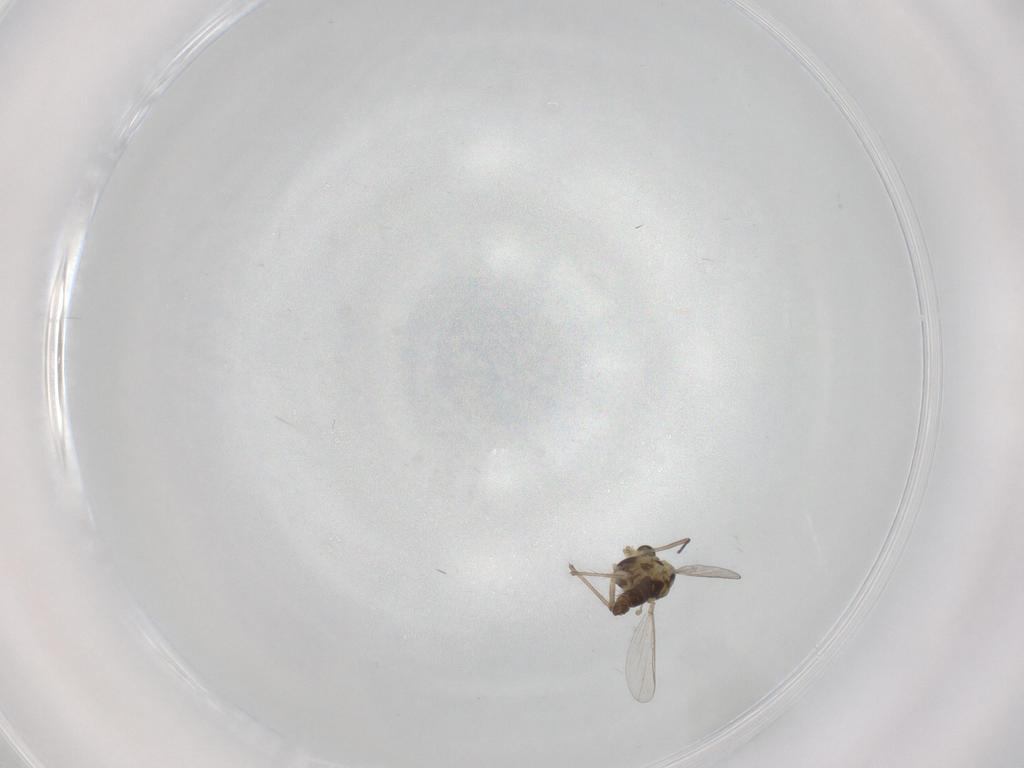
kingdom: Animalia
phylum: Arthropoda
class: Insecta
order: Diptera
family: Chironomidae
